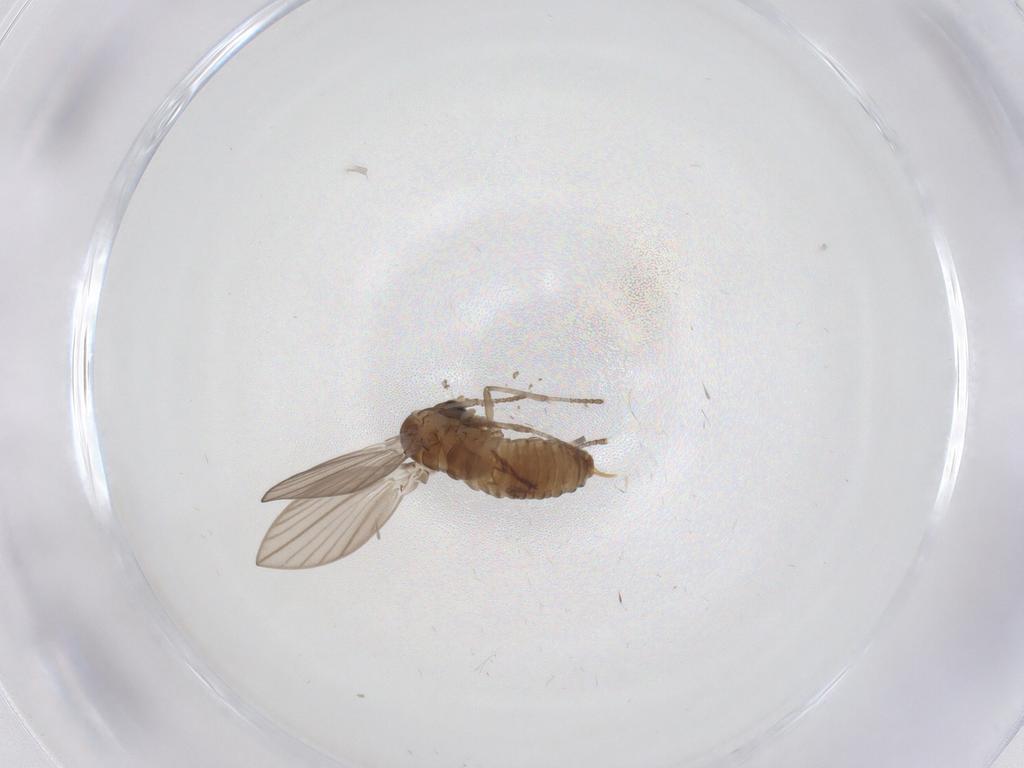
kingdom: Animalia
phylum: Arthropoda
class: Insecta
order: Diptera
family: Psychodidae
